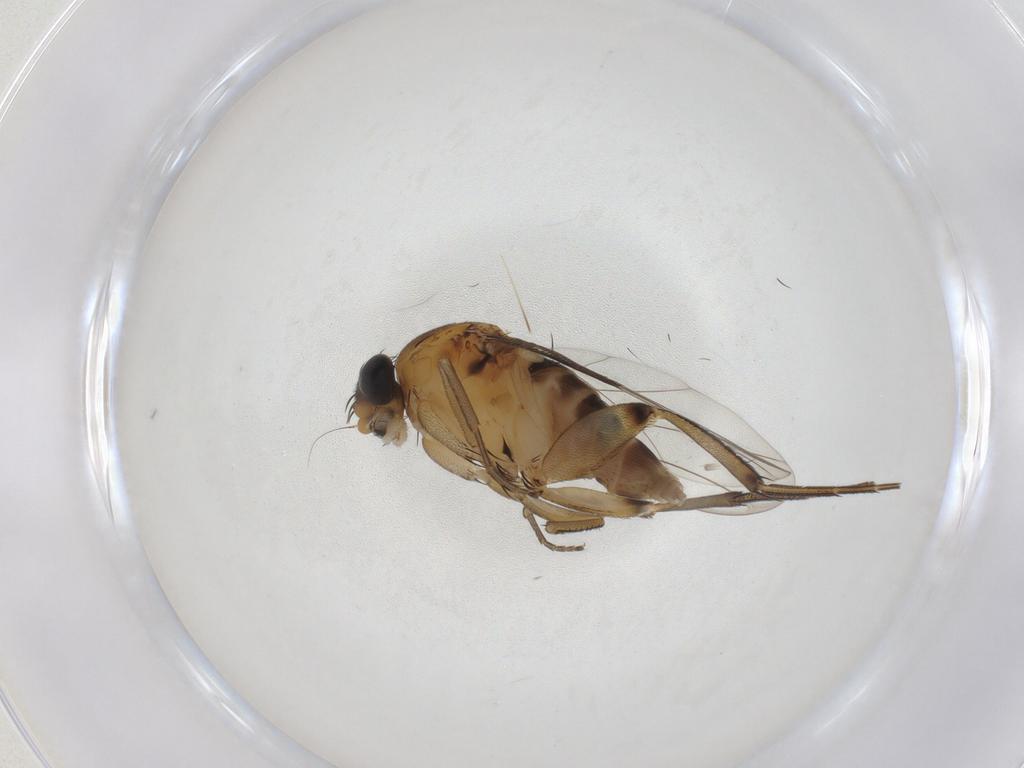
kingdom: Animalia
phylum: Arthropoda
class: Insecta
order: Diptera
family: Phoridae
